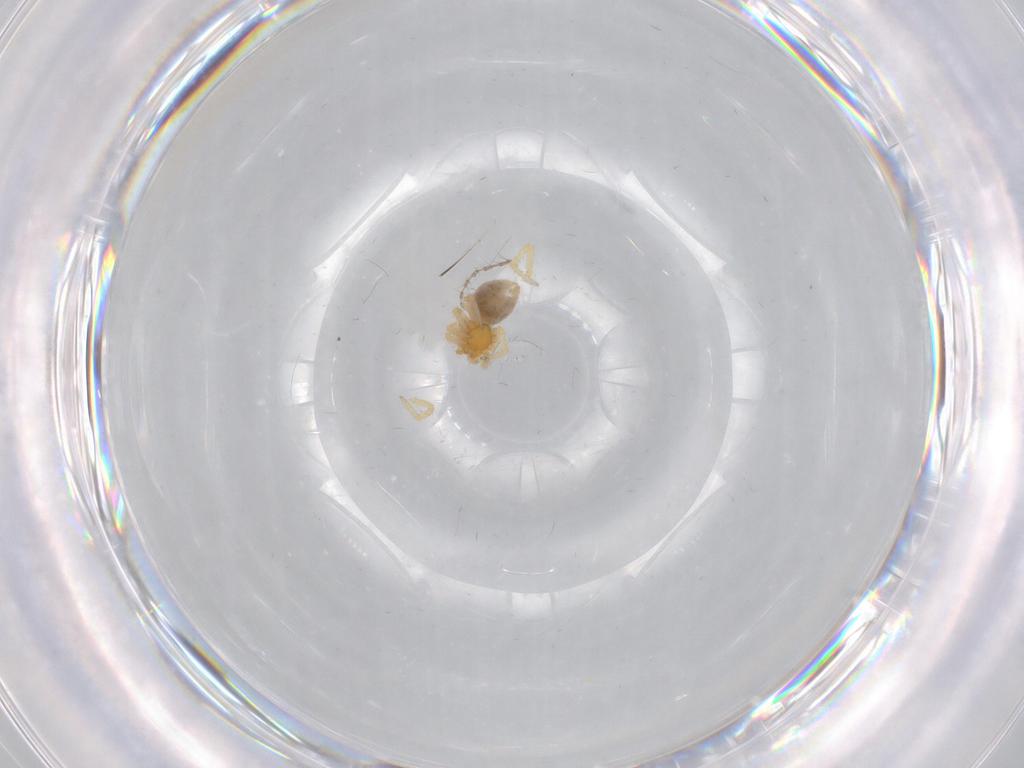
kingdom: Animalia
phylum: Arthropoda
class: Arachnida
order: Araneae
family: Theridiidae
